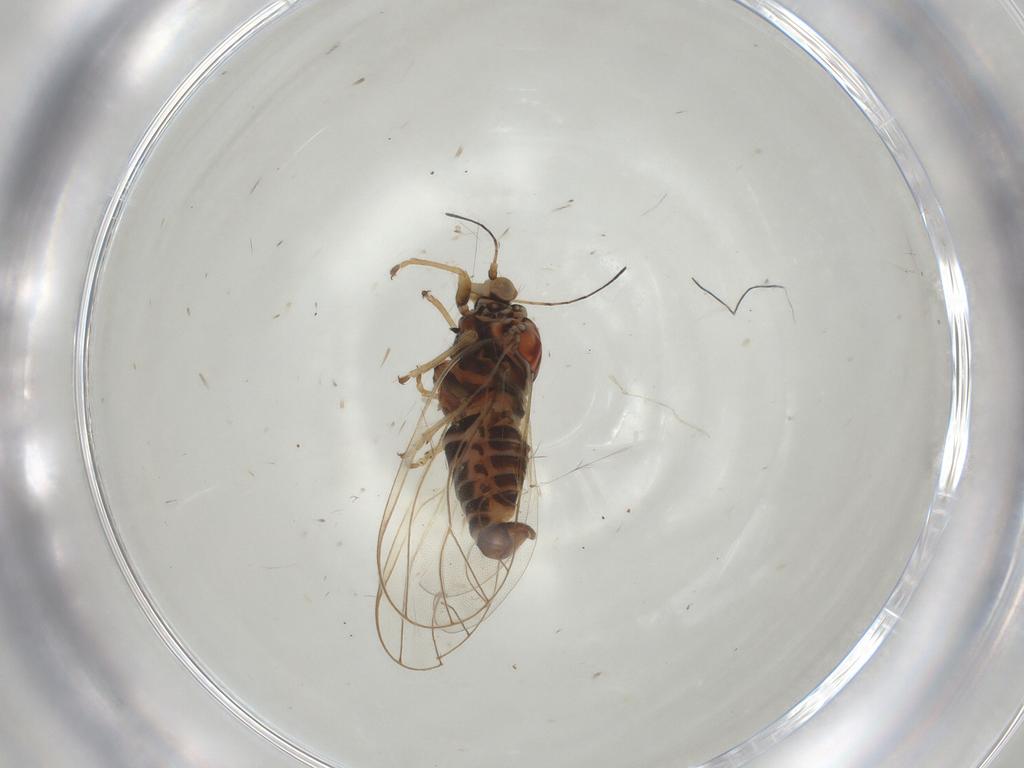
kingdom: Animalia
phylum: Arthropoda
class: Insecta
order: Hemiptera
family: Psyllidae
